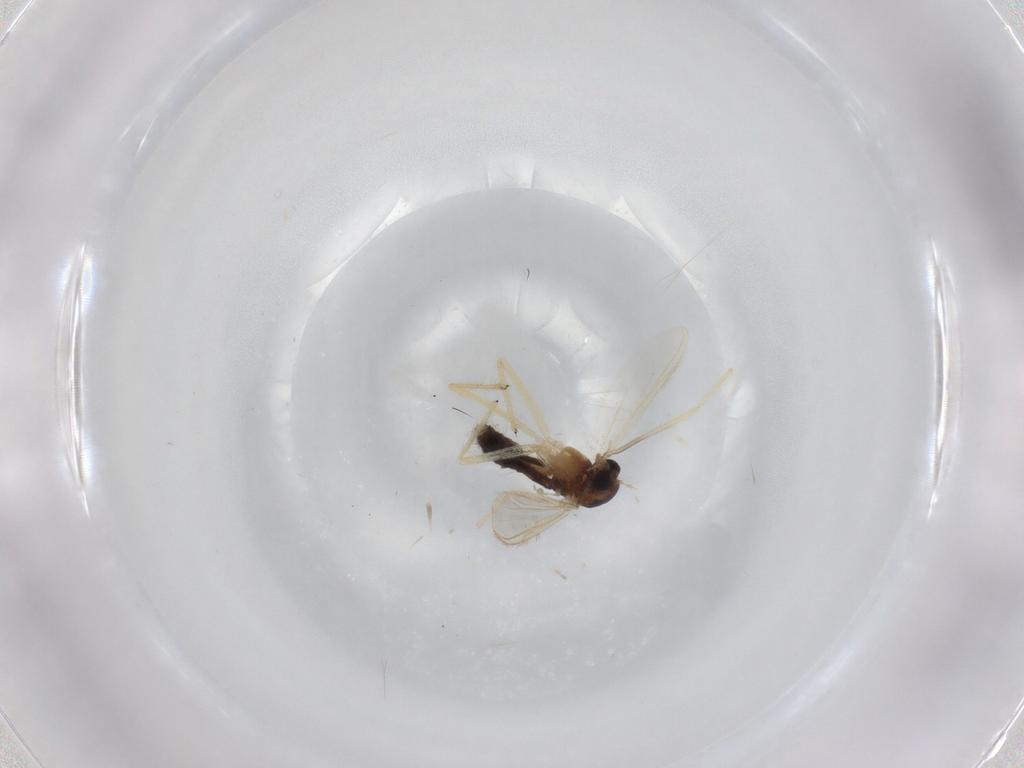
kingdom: Animalia
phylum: Arthropoda
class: Insecta
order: Diptera
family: Chironomidae
